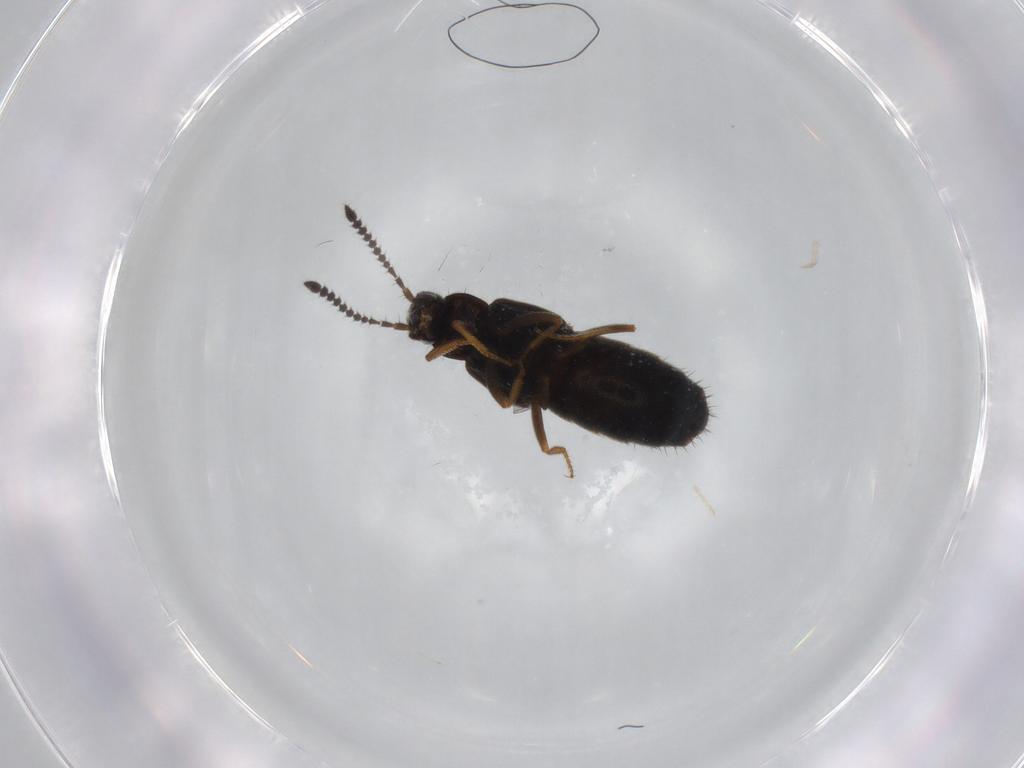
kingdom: Animalia
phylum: Arthropoda
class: Insecta
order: Coleoptera
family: Staphylinidae
